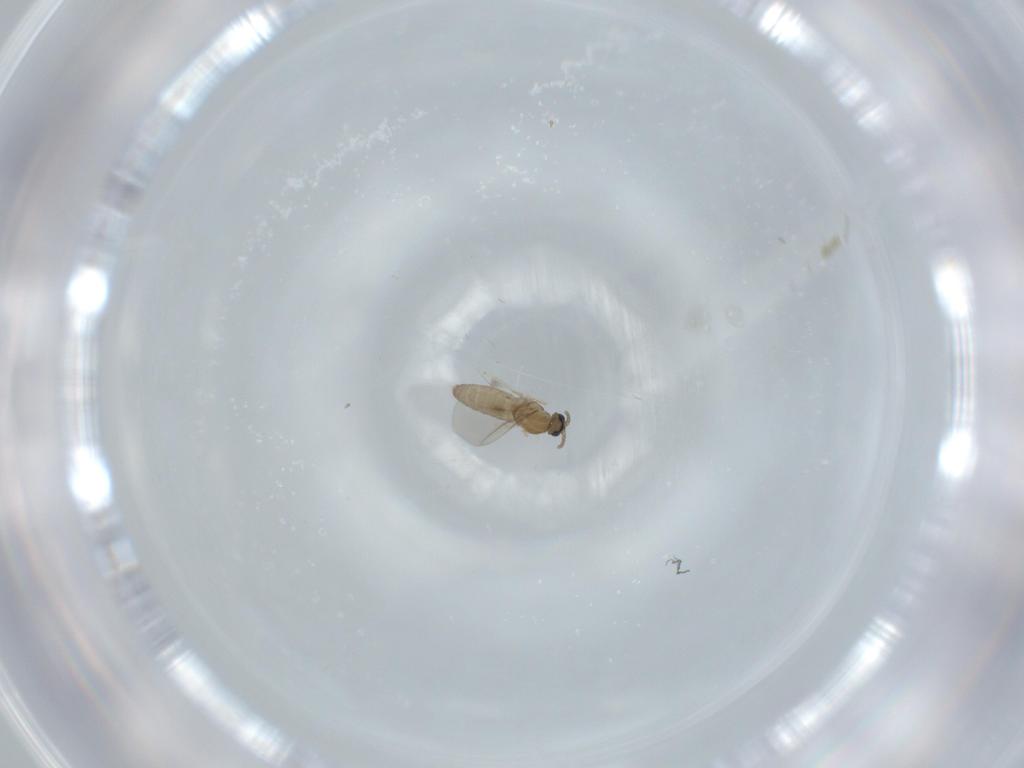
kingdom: Animalia
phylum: Arthropoda
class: Insecta
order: Diptera
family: Cecidomyiidae
